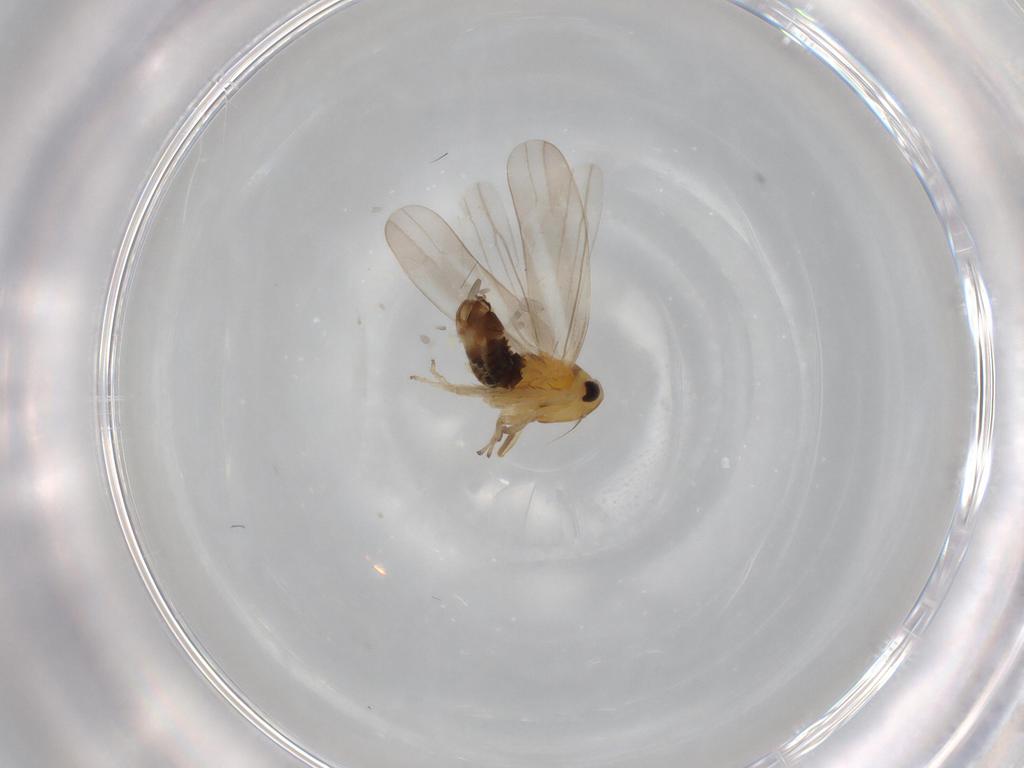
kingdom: Animalia
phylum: Arthropoda
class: Insecta
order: Hemiptera
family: Cicadellidae
